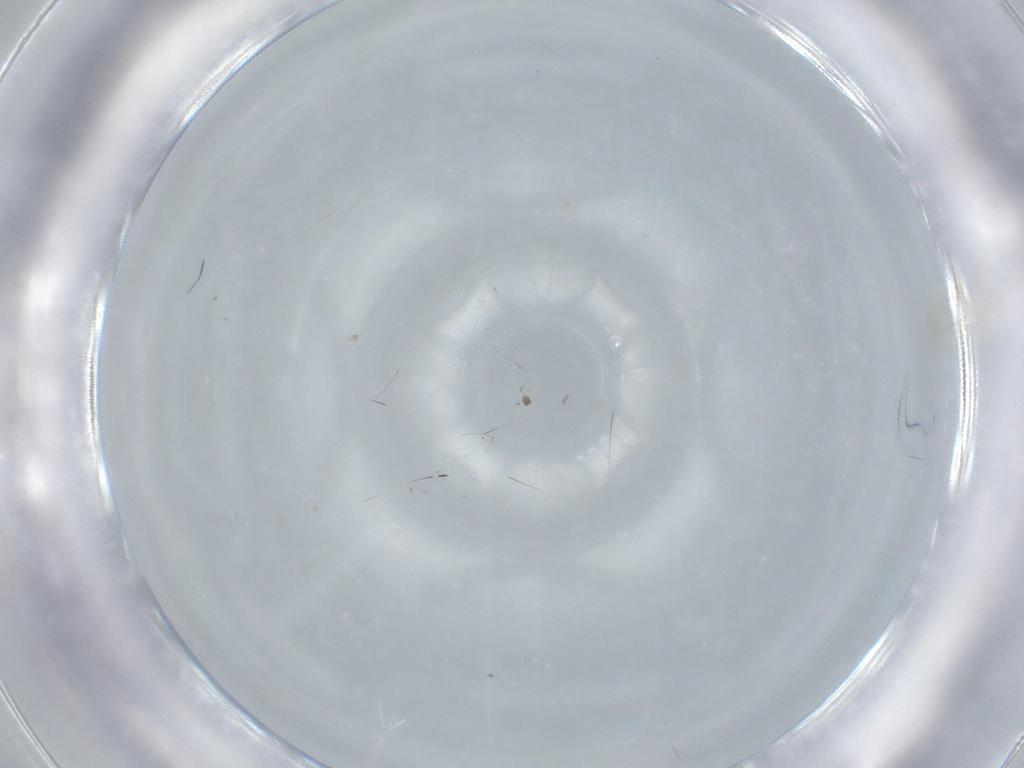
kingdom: Animalia
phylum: Arthropoda
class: Insecta
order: Hymenoptera
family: Trichogrammatidae
